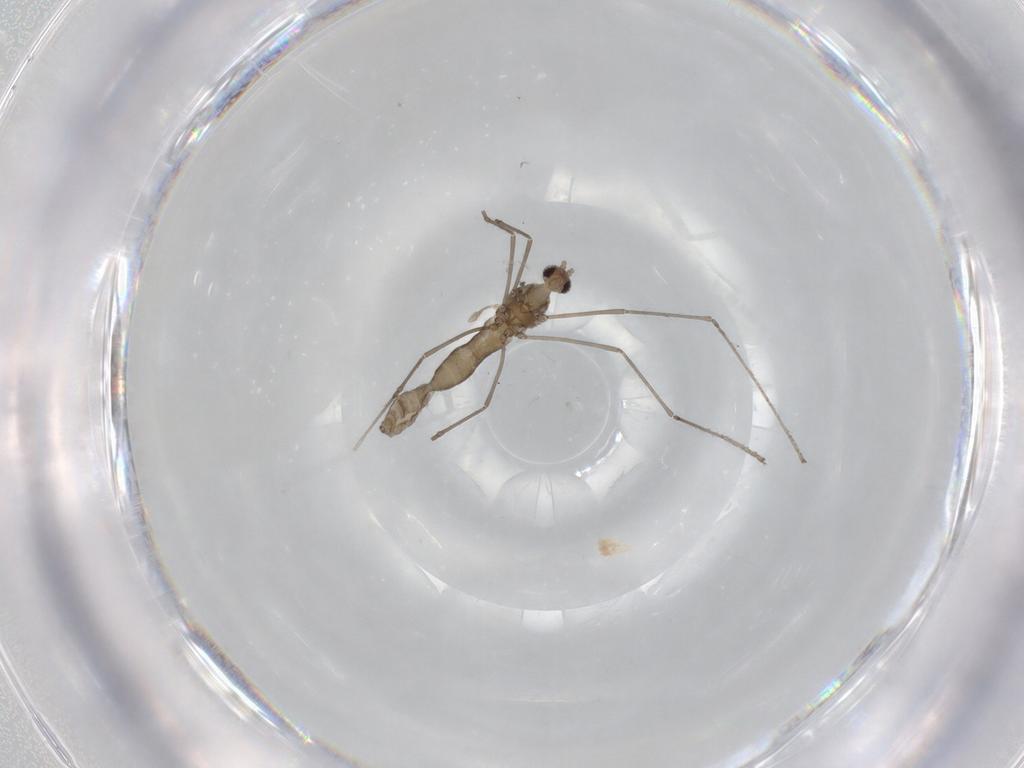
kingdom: Animalia
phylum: Arthropoda
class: Insecta
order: Diptera
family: Cecidomyiidae
